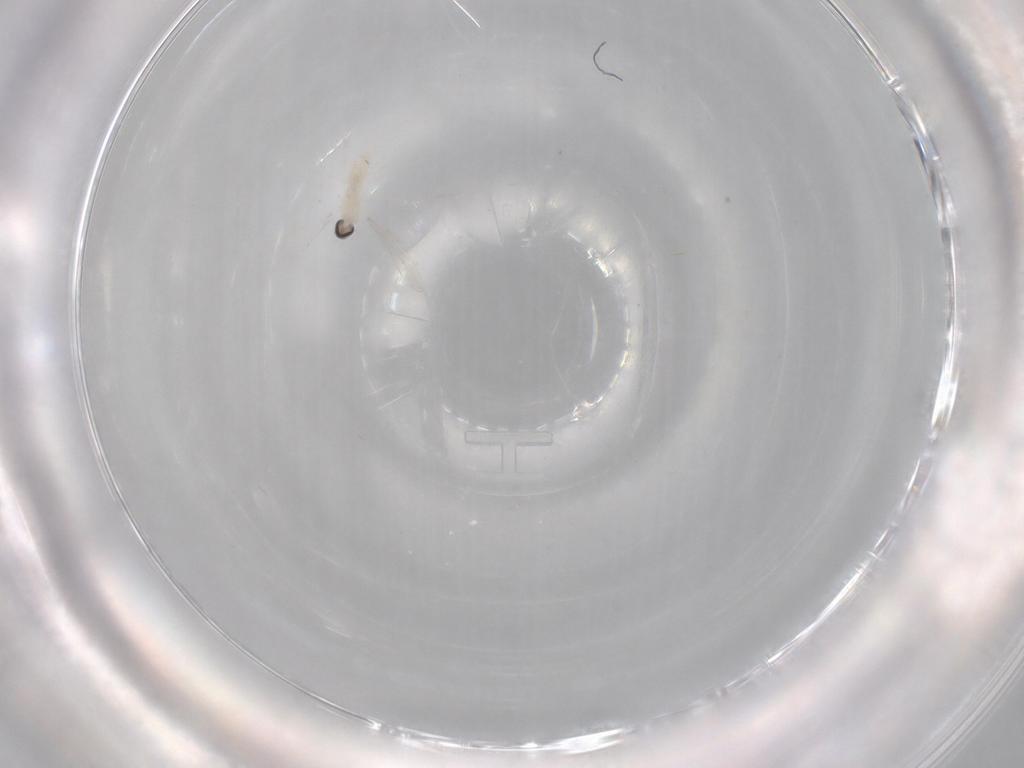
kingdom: Animalia
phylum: Arthropoda
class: Insecta
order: Diptera
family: Cecidomyiidae
